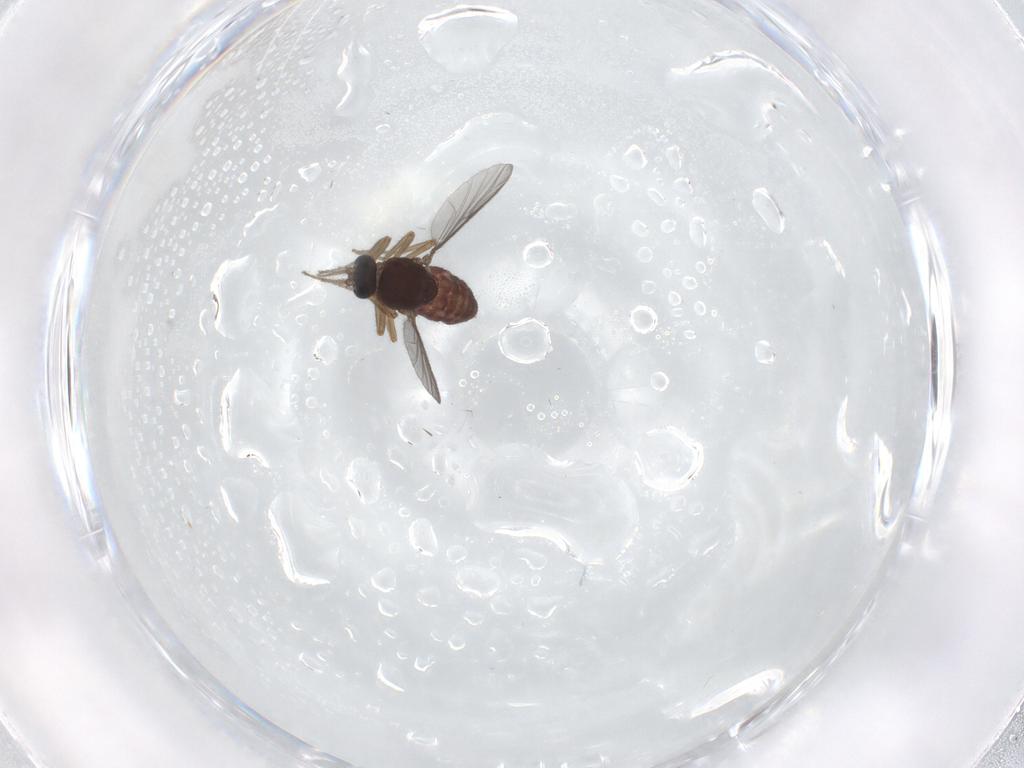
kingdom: Animalia
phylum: Arthropoda
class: Insecta
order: Diptera
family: Ceratopogonidae
